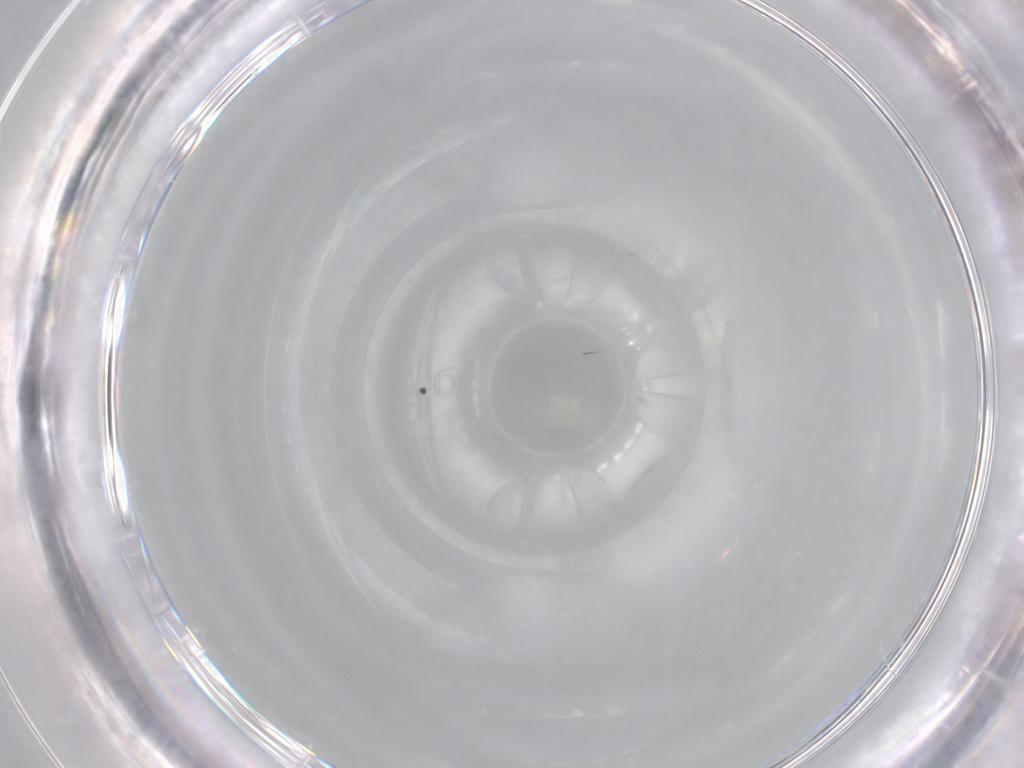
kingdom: Animalia
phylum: Arthropoda
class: Insecta
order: Blattodea
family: Ectobiidae
